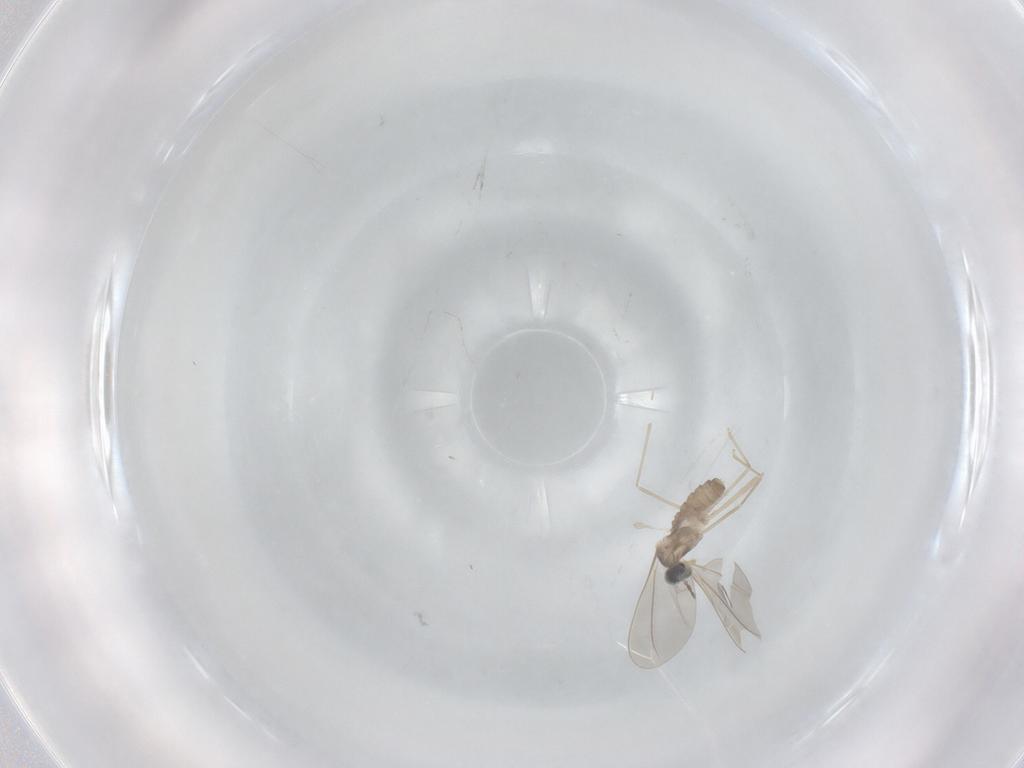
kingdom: Animalia
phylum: Arthropoda
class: Insecta
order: Diptera
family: Cecidomyiidae
